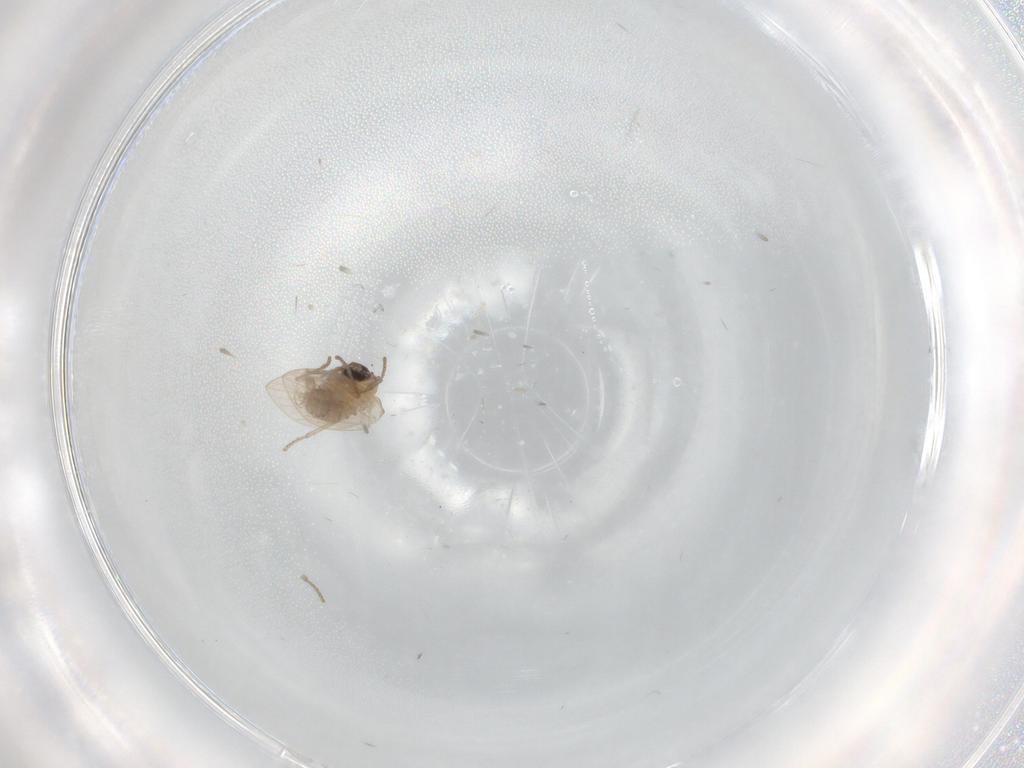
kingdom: Animalia
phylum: Arthropoda
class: Insecta
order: Diptera
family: Psychodidae
